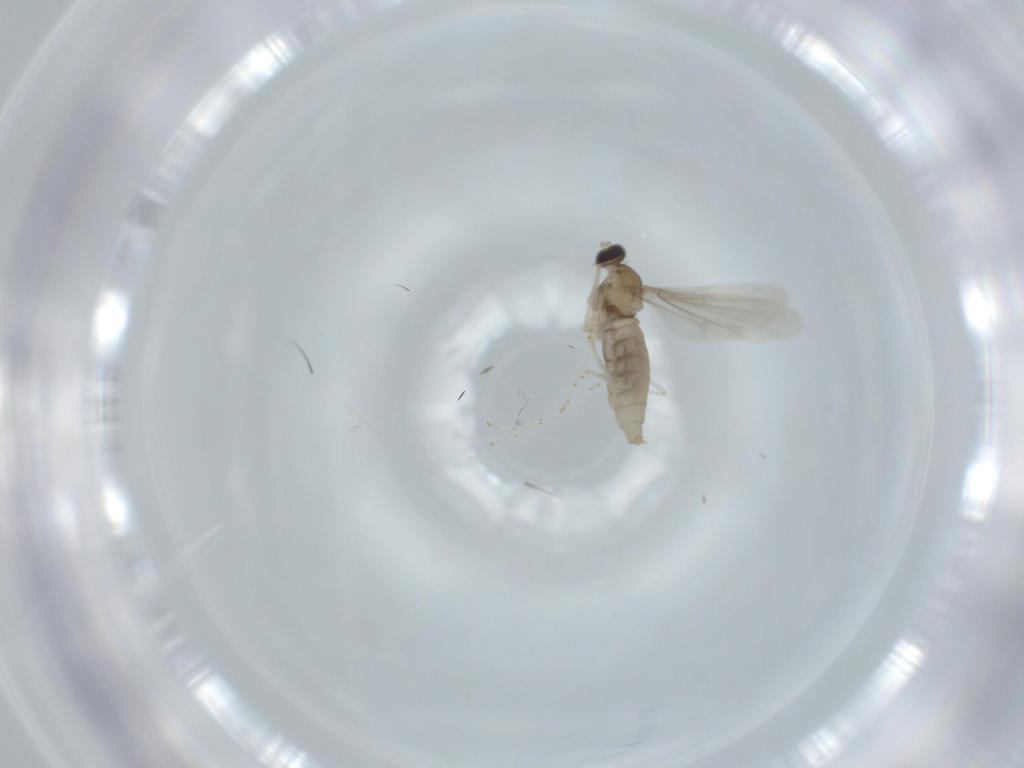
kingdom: Animalia
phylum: Arthropoda
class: Insecta
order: Diptera
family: Cecidomyiidae
